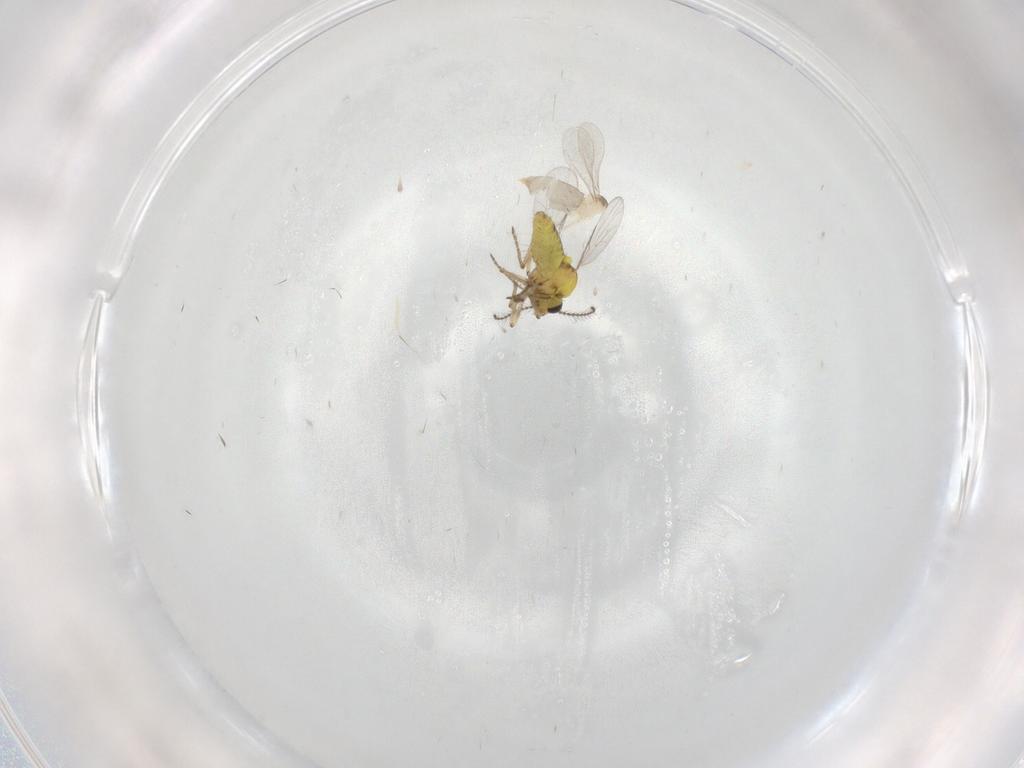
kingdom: Animalia
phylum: Arthropoda
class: Insecta
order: Diptera
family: Ceratopogonidae
